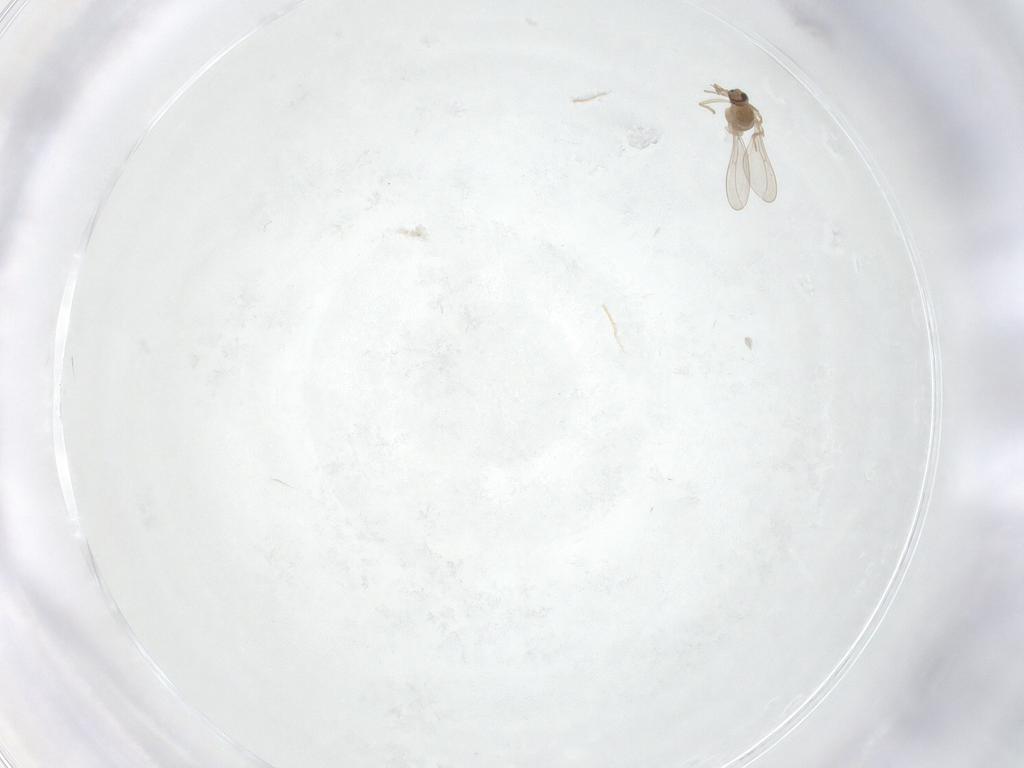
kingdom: Animalia
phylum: Arthropoda
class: Insecta
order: Diptera
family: Cecidomyiidae
